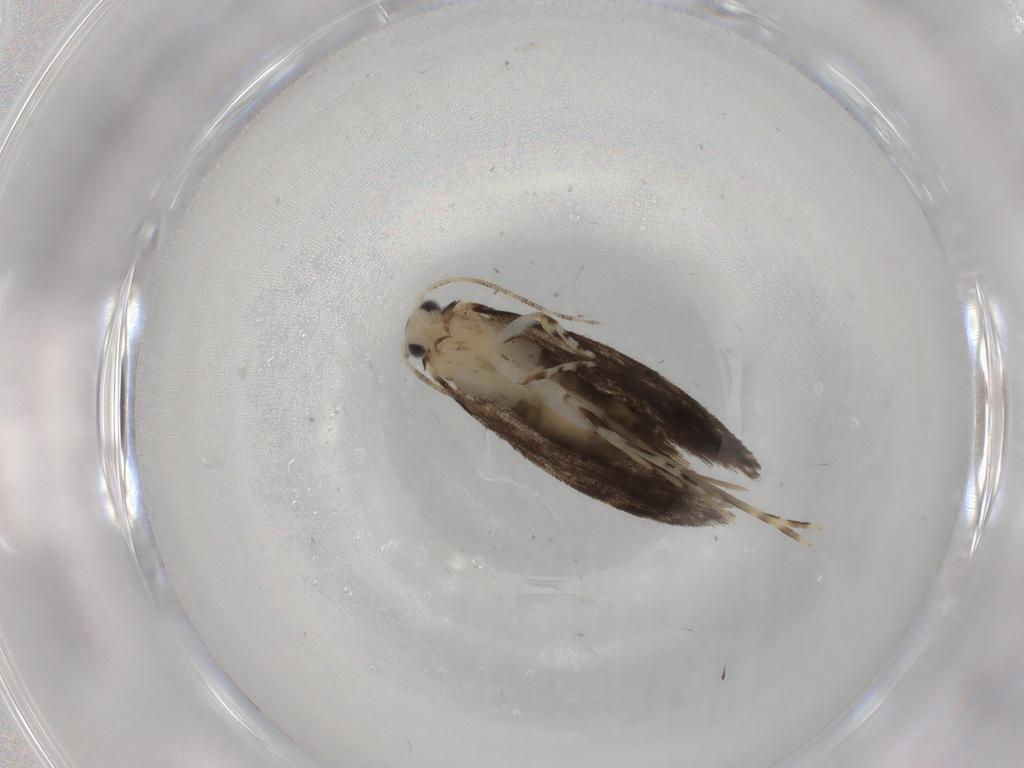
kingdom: Animalia
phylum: Arthropoda
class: Insecta
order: Lepidoptera
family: Tineidae
